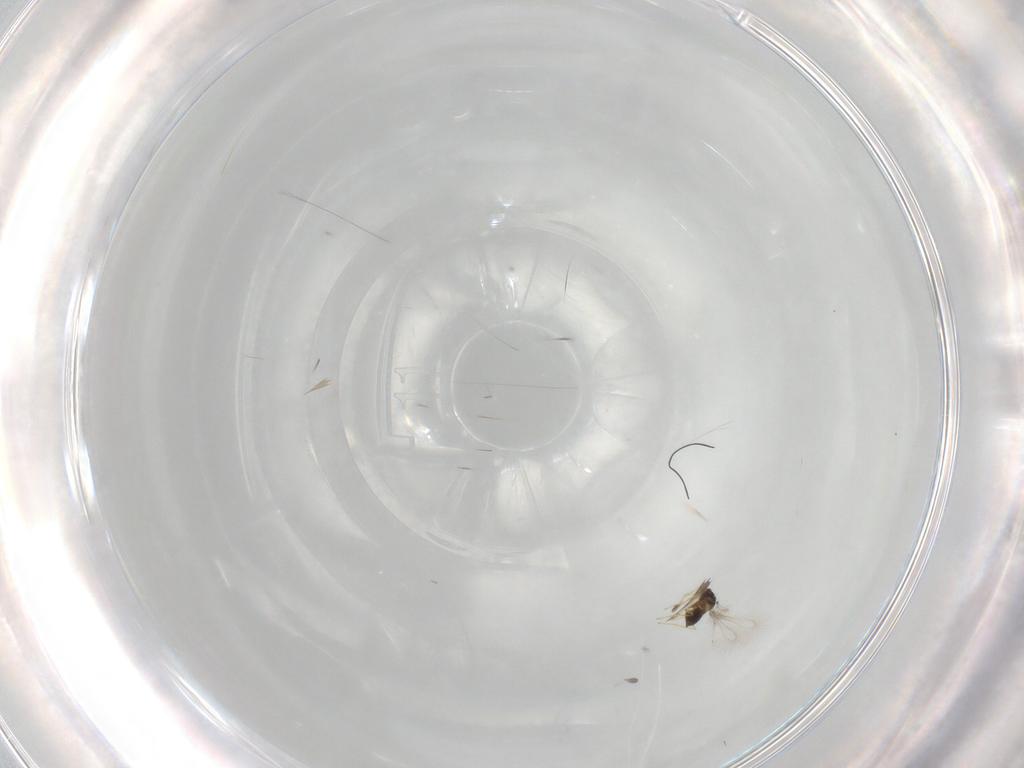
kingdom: Animalia
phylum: Arthropoda
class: Insecta
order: Hymenoptera
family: Mymaridae
